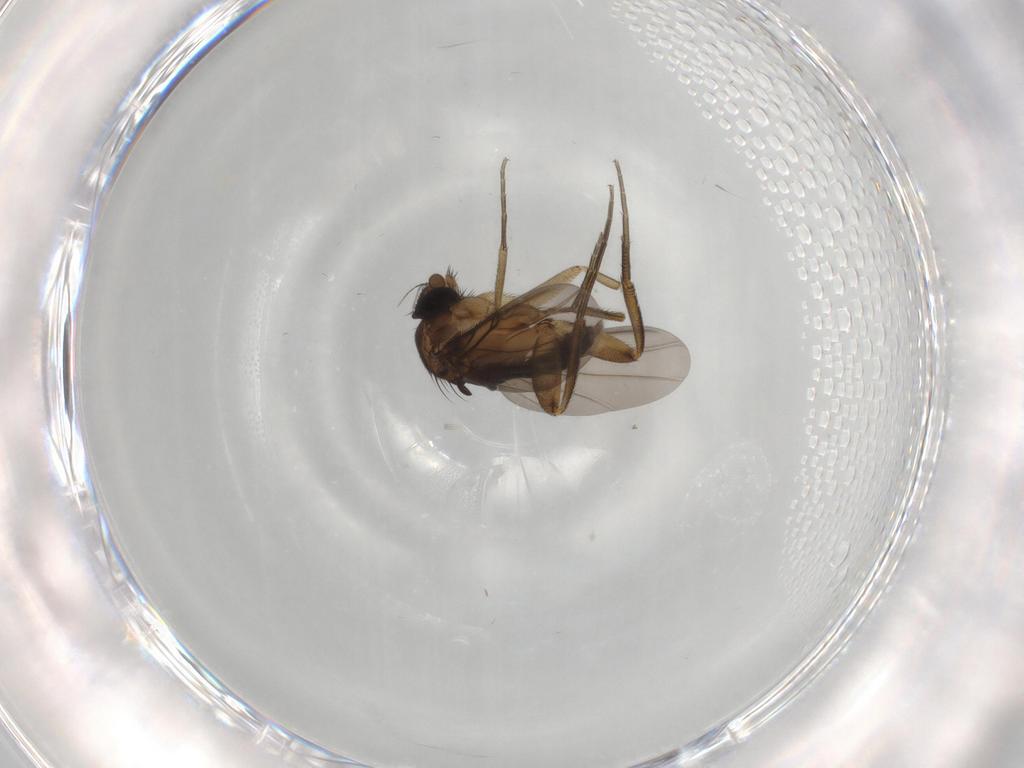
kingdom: Animalia
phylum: Arthropoda
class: Insecta
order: Diptera
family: Phoridae
